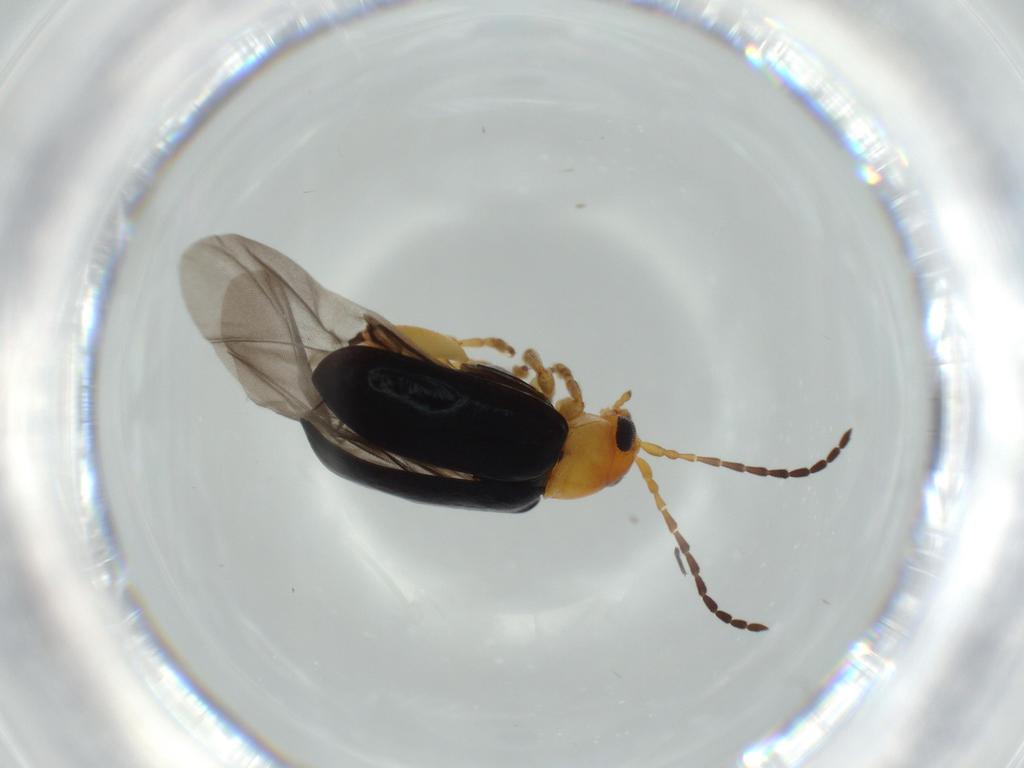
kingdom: Animalia
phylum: Arthropoda
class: Insecta
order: Coleoptera
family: Chrysomelidae
